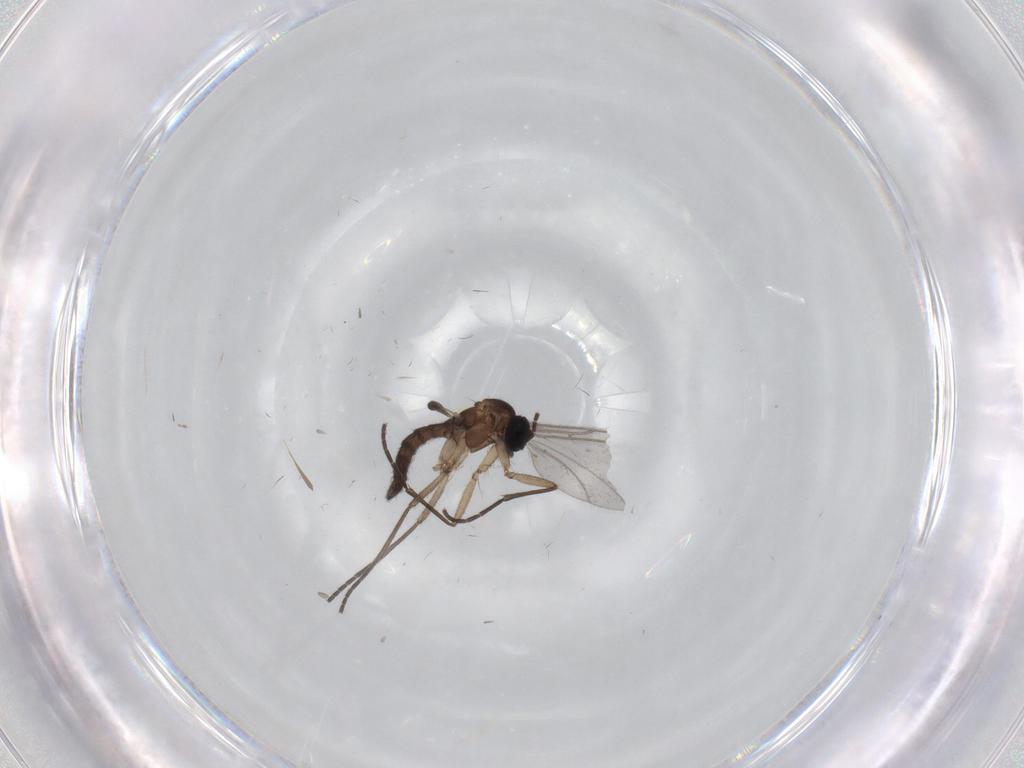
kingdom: Animalia
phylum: Arthropoda
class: Insecta
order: Diptera
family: Sciaridae
